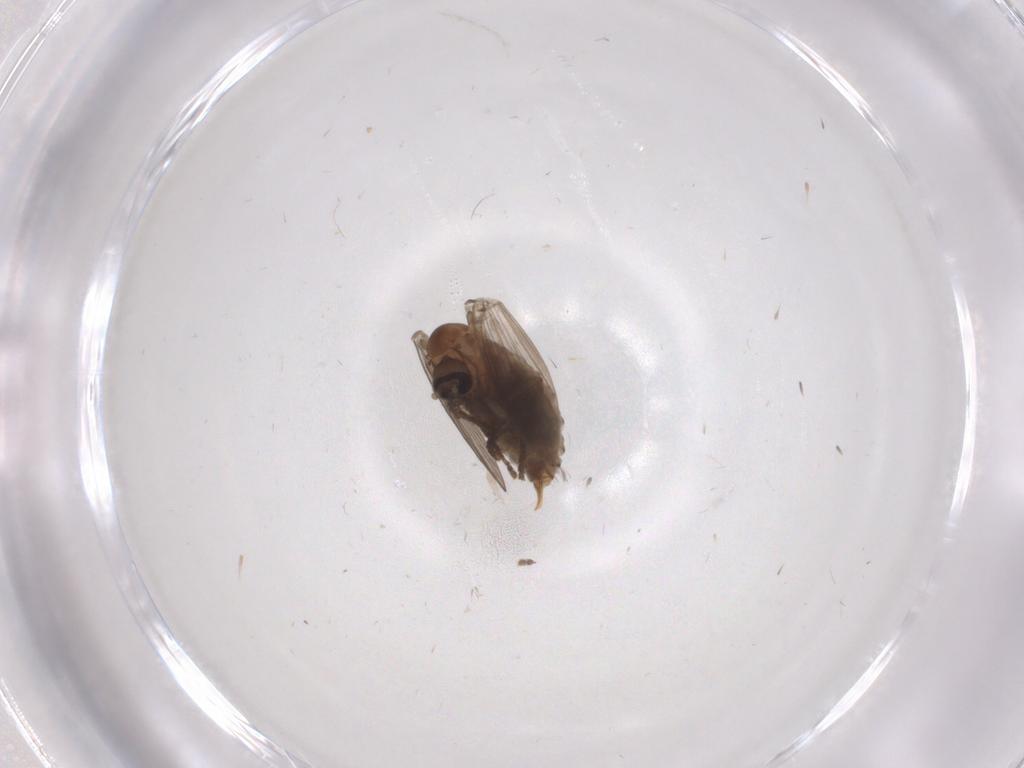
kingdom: Animalia
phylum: Arthropoda
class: Insecta
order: Diptera
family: Psychodidae
